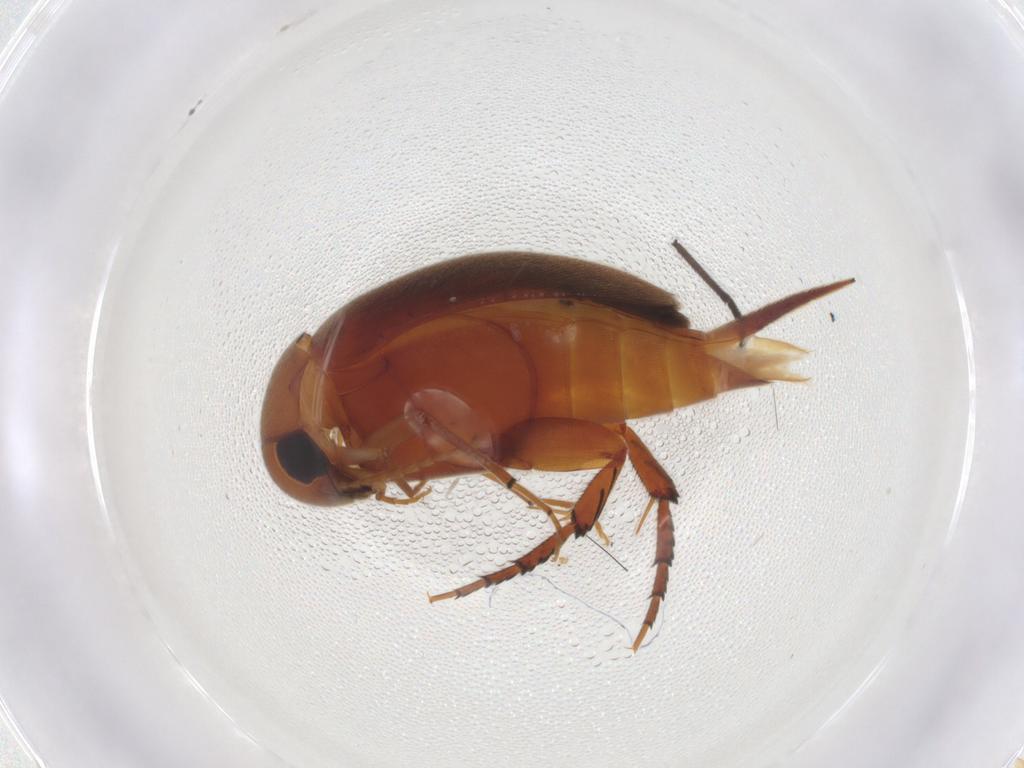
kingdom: Animalia
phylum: Arthropoda
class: Insecta
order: Coleoptera
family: Mordellidae
